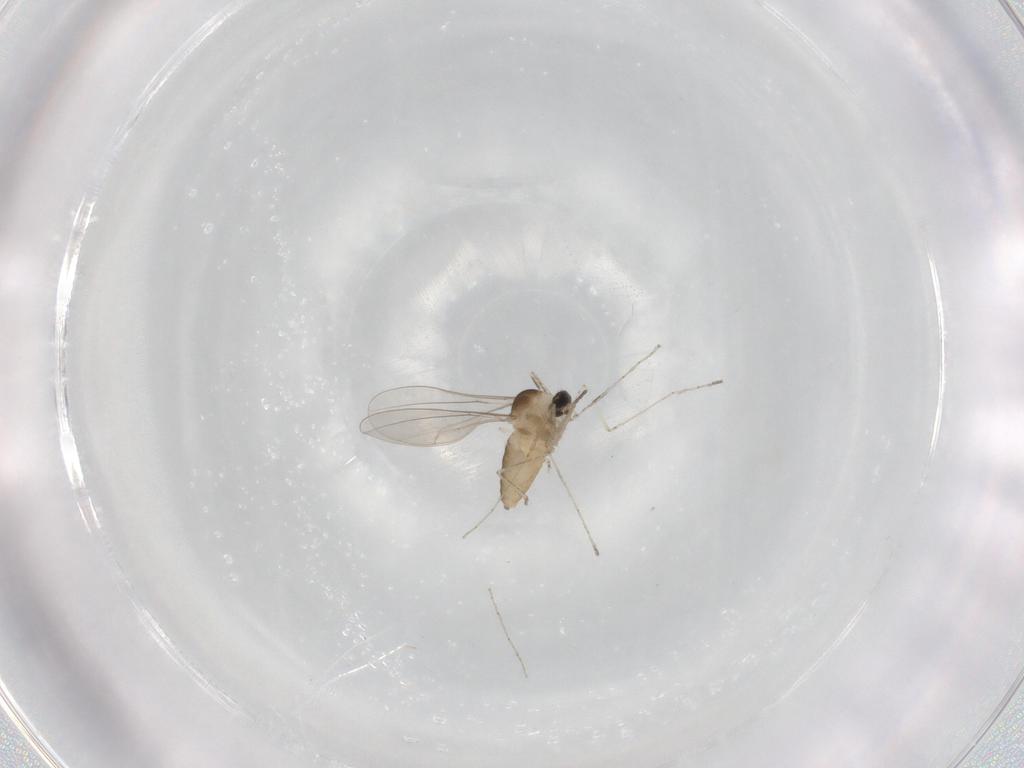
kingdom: Animalia
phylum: Arthropoda
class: Insecta
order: Diptera
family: Cecidomyiidae
